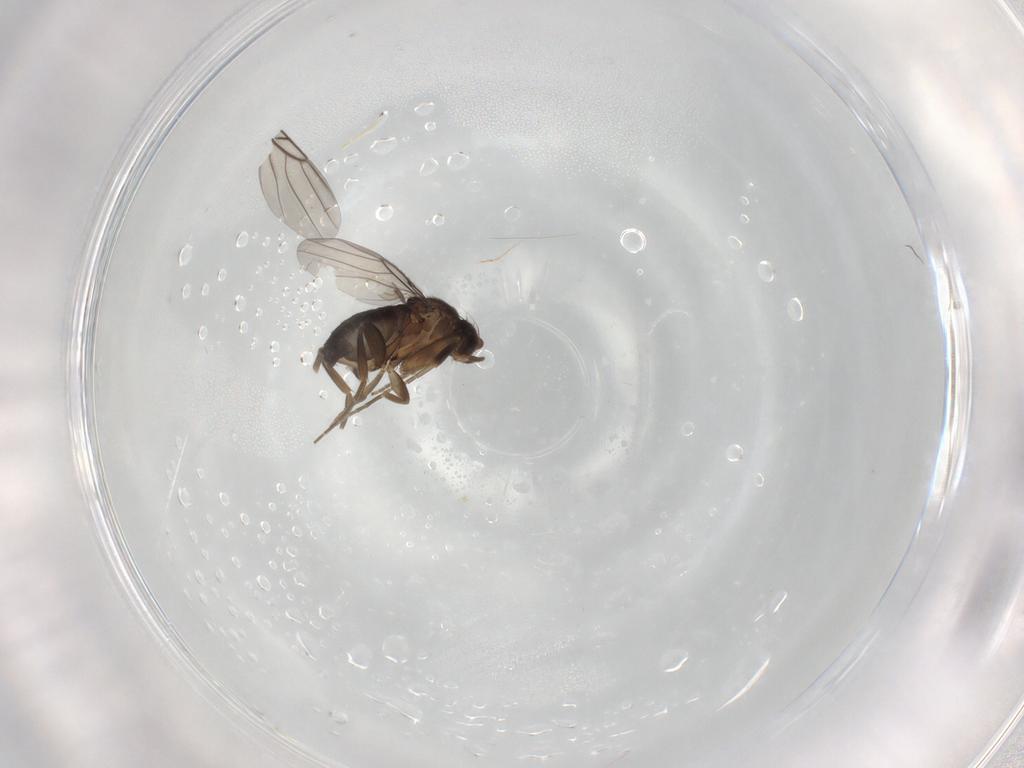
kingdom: Animalia
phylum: Arthropoda
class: Insecta
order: Diptera
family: Phoridae
